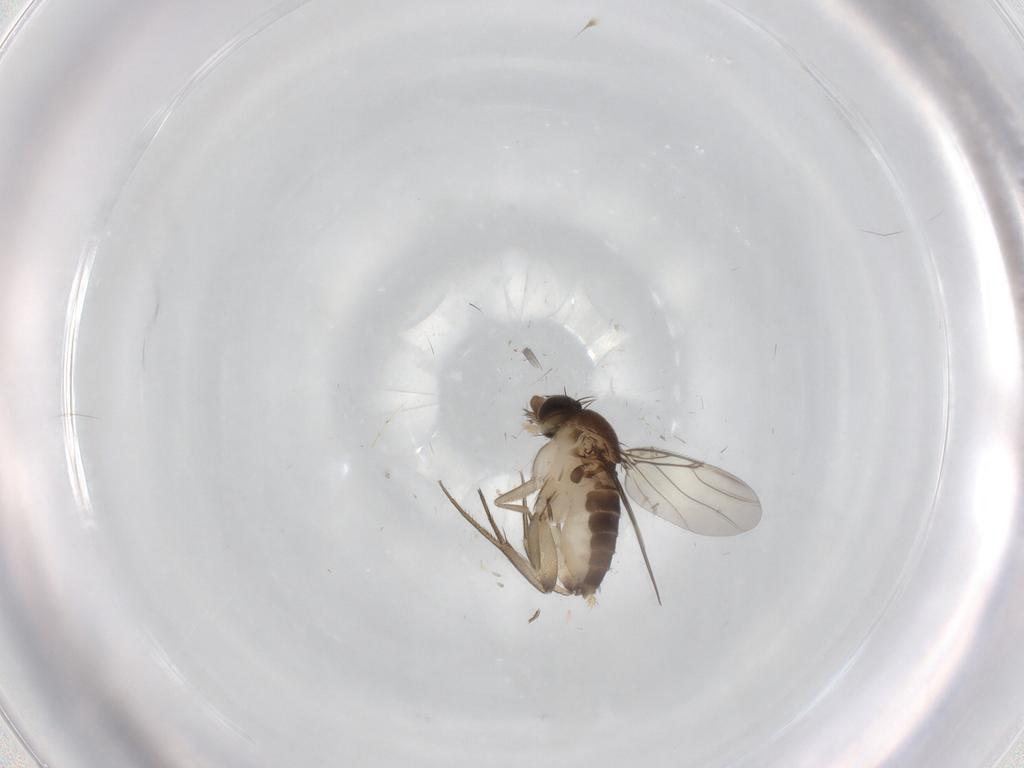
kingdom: Animalia
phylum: Arthropoda
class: Insecta
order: Diptera
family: Phoridae
